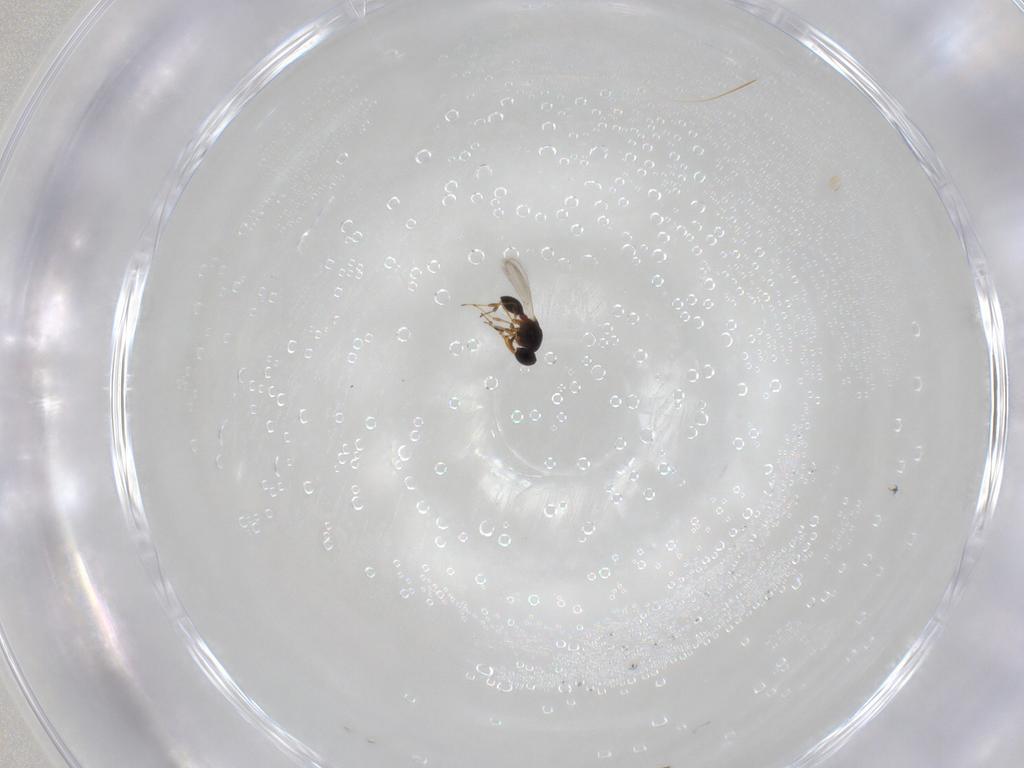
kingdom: Animalia
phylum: Arthropoda
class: Insecta
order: Hymenoptera
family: Platygastridae
